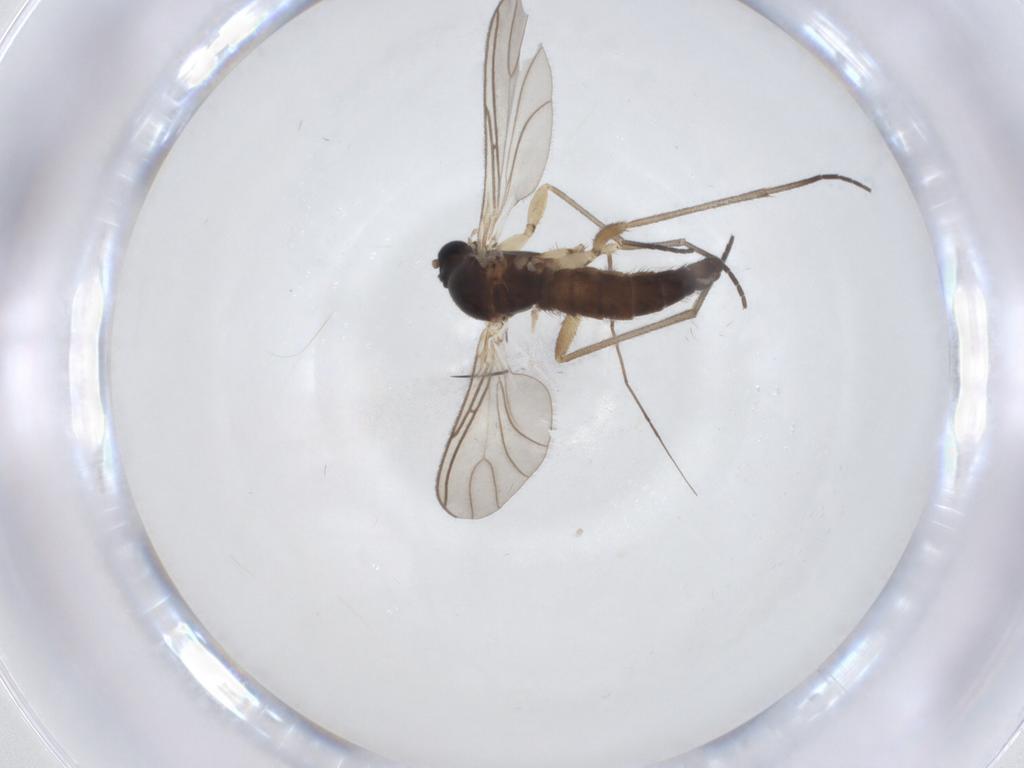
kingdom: Animalia
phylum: Arthropoda
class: Insecta
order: Diptera
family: Sciaridae
